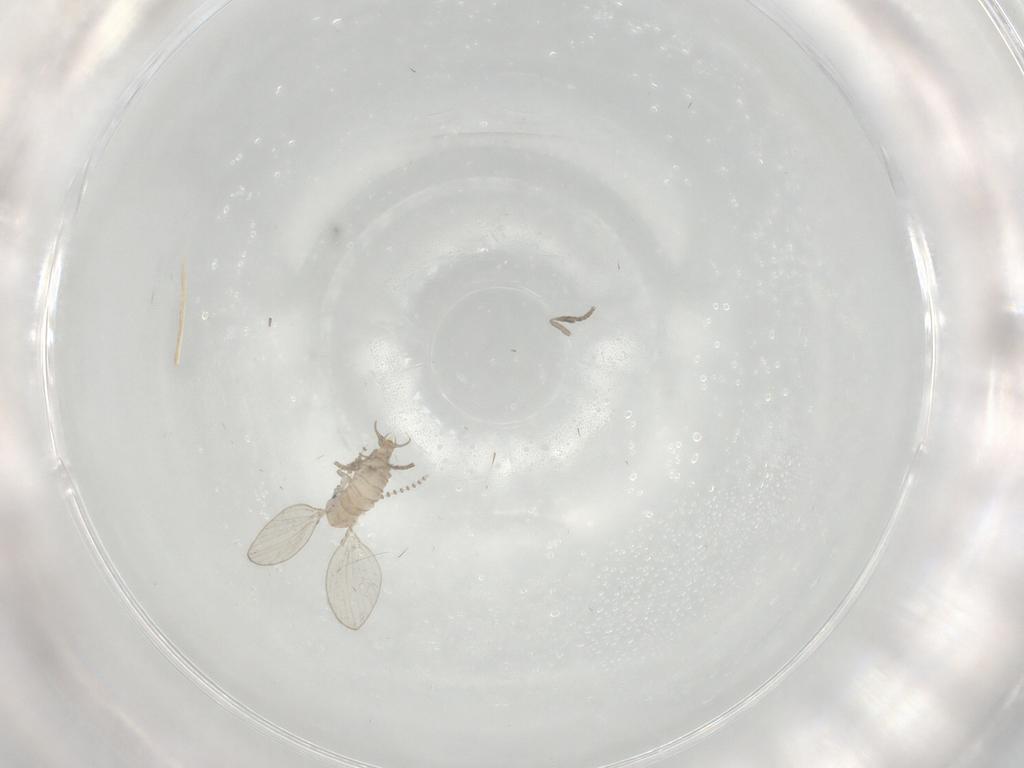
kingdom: Animalia
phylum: Arthropoda
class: Insecta
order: Diptera
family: Psychodidae
